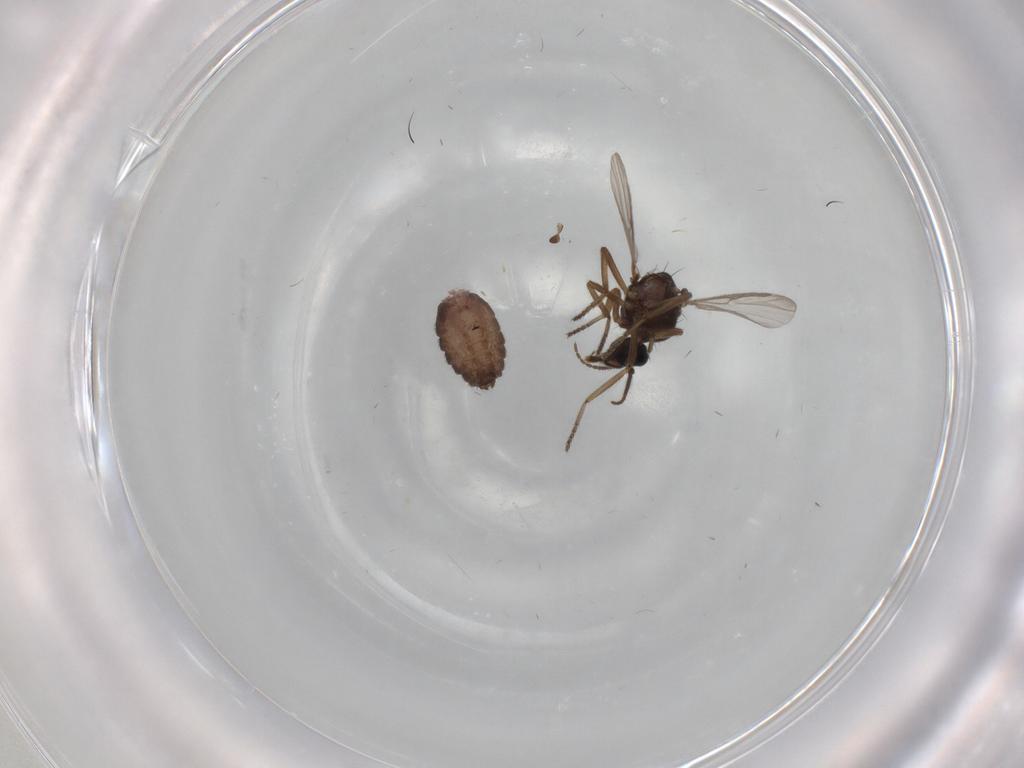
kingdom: Animalia
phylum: Arthropoda
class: Insecta
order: Diptera
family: Ceratopogonidae
